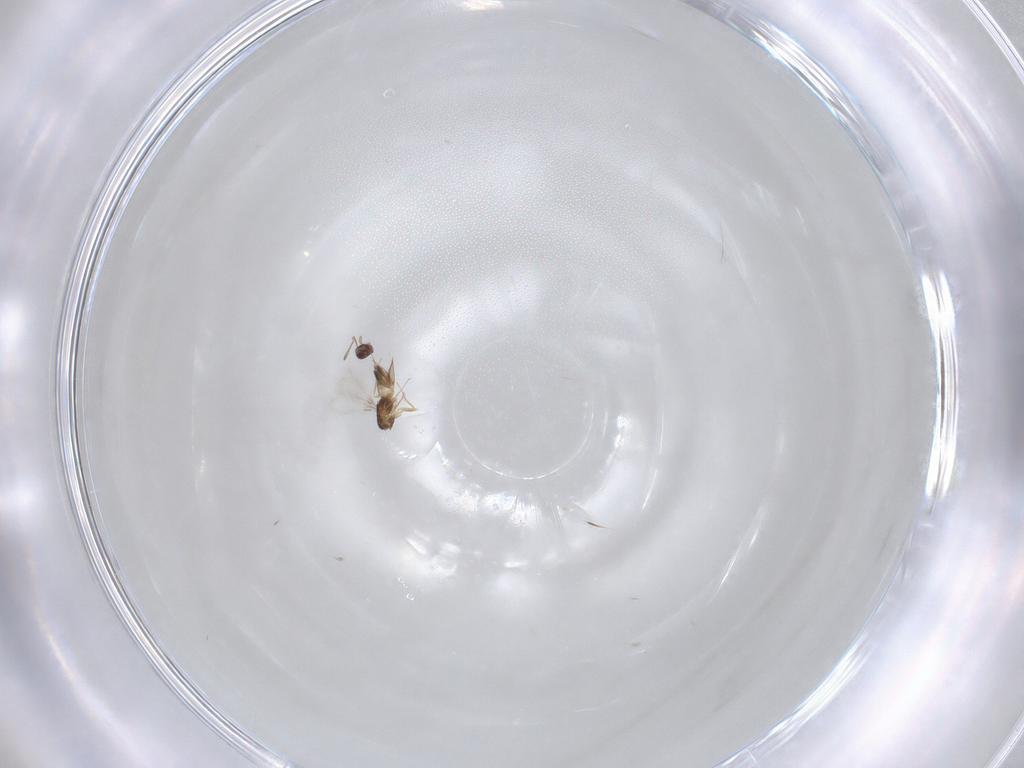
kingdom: Animalia
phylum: Arthropoda
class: Insecta
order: Hymenoptera
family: Mymaridae
